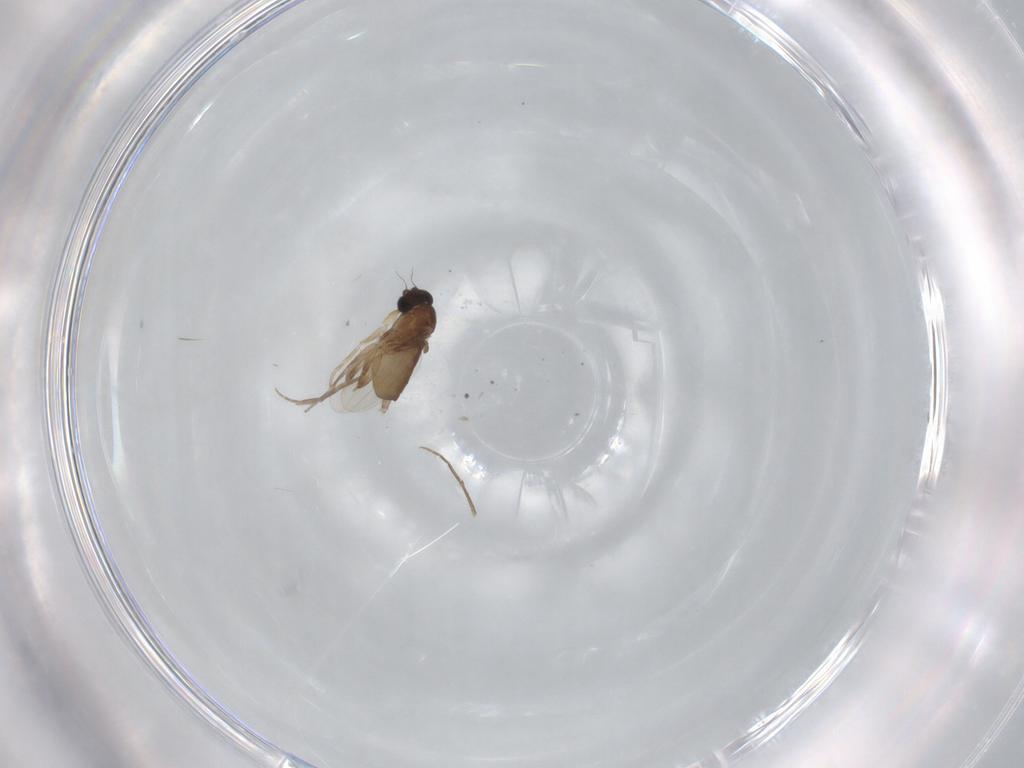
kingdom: Animalia
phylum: Arthropoda
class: Insecta
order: Diptera
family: Phoridae
